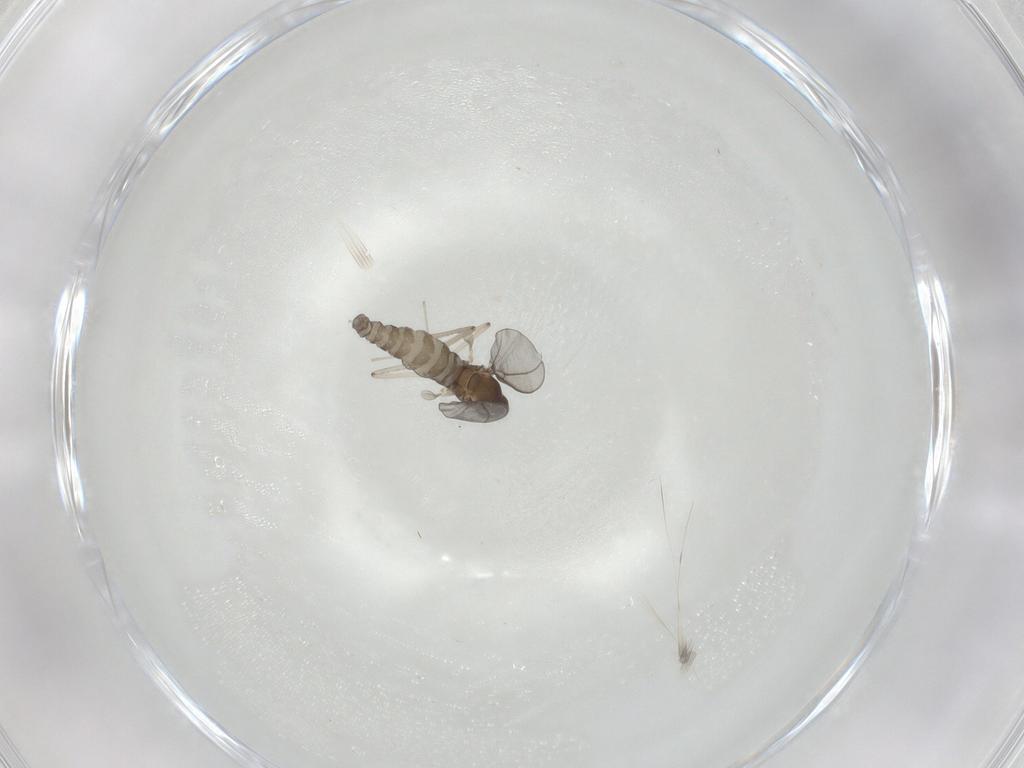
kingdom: Animalia
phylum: Arthropoda
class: Insecta
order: Diptera
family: Cecidomyiidae
